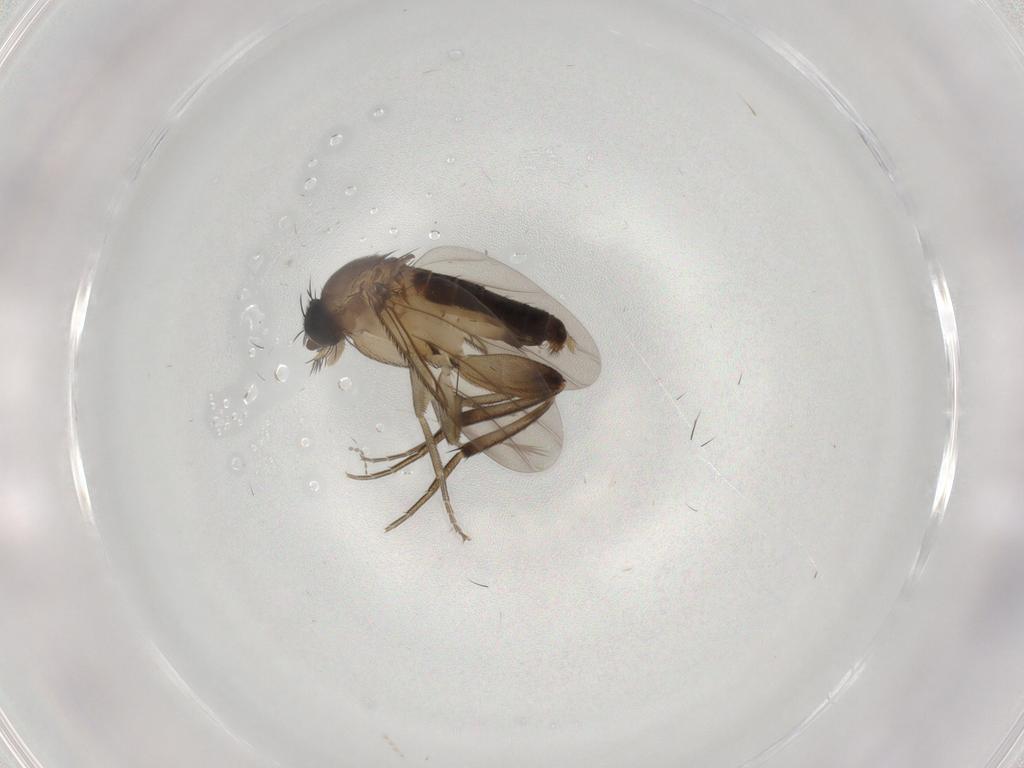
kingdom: Animalia
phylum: Arthropoda
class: Insecta
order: Diptera
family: Phoridae
